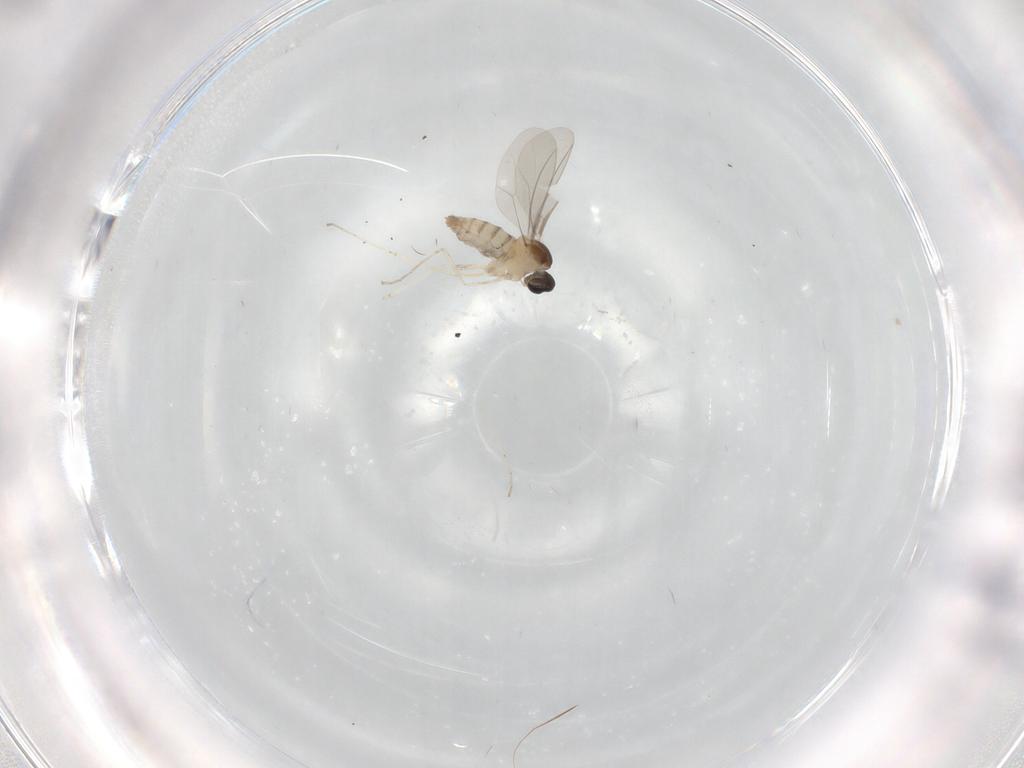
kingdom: Animalia
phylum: Arthropoda
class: Insecta
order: Diptera
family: Cecidomyiidae
